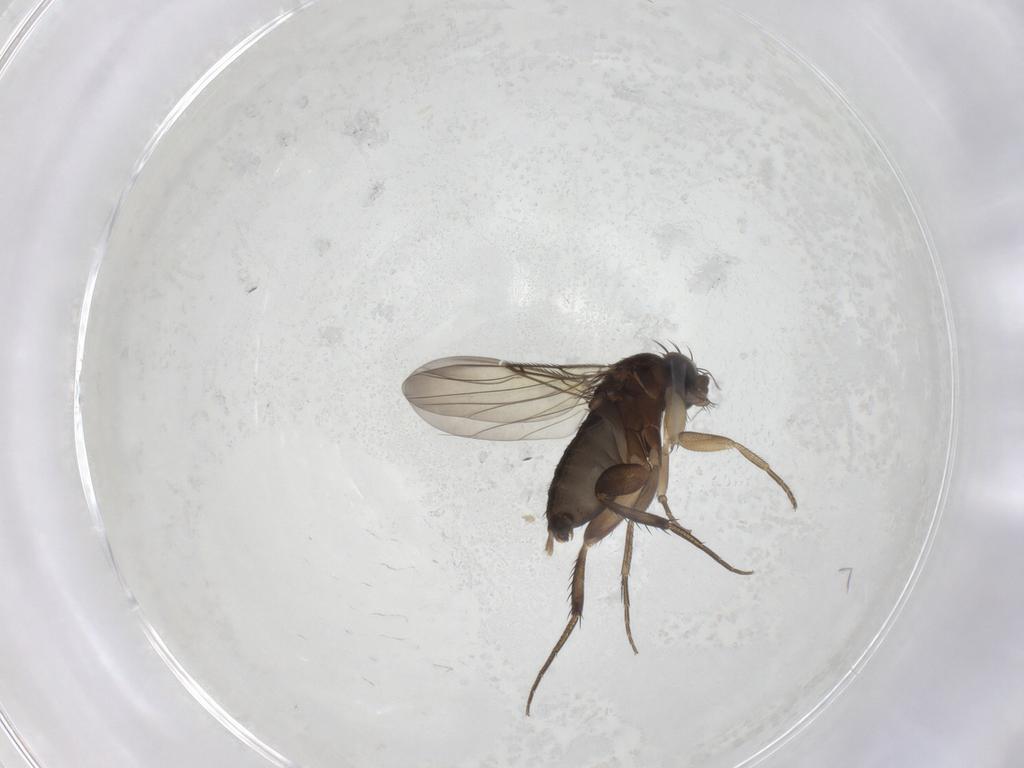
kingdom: Animalia
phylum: Arthropoda
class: Insecta
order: Diptera
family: Phoridae
